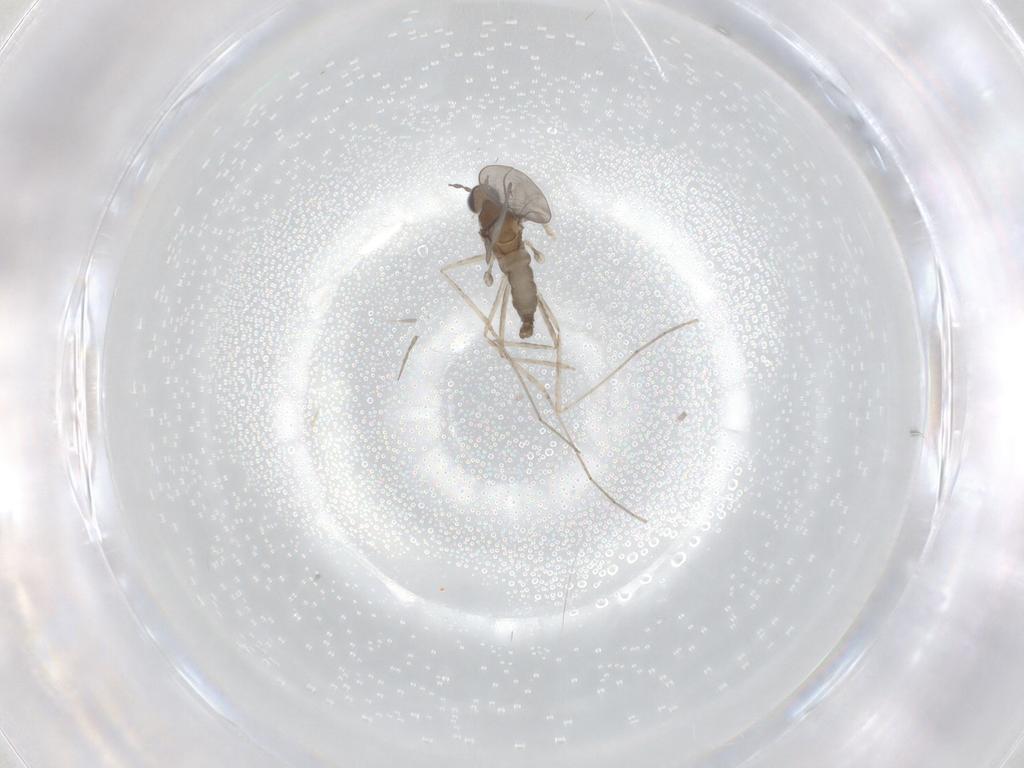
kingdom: Animalia
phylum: Arthropoda
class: Insecta
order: Diptera
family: Cecidomyiidae
